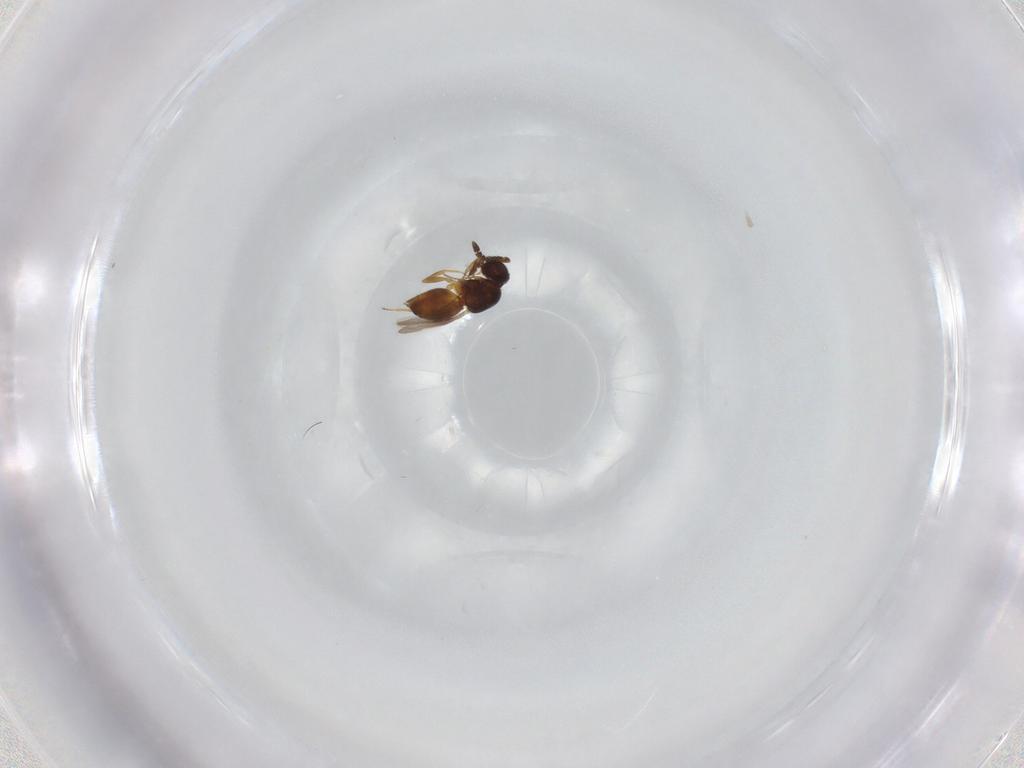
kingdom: Animalia
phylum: Arthropoda
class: Insecta
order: Hymenoptera
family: Ceraphronidae
